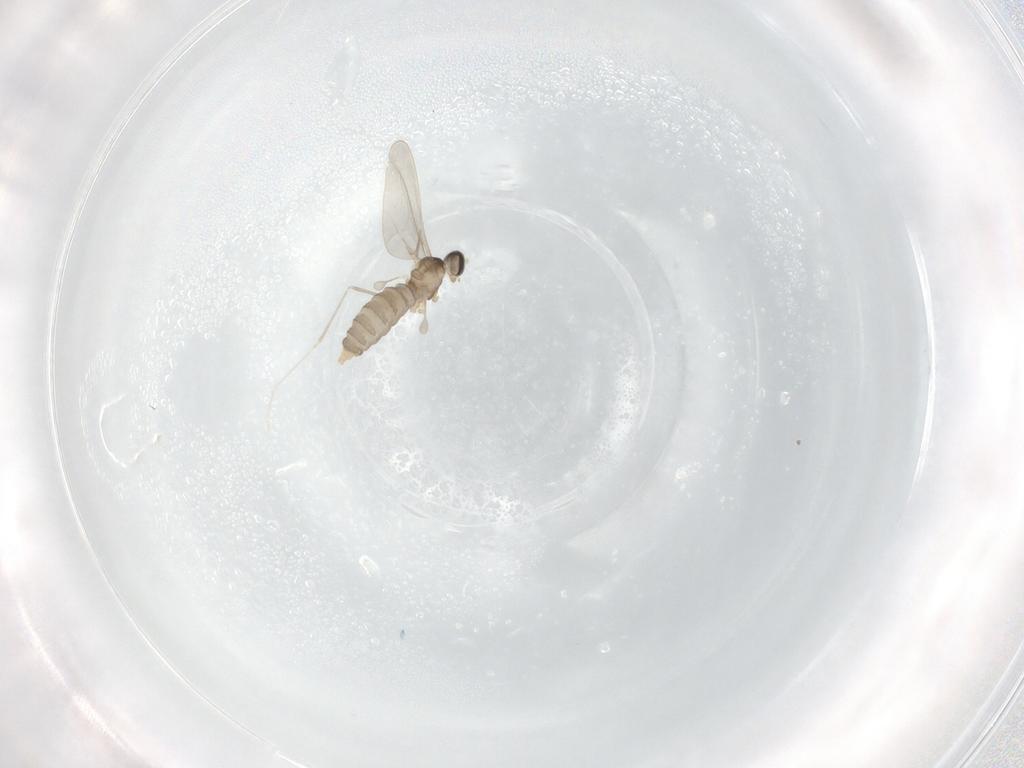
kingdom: Animalia
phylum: Arthropoda
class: Insecta
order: Diptera
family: Cecidomyiidae
